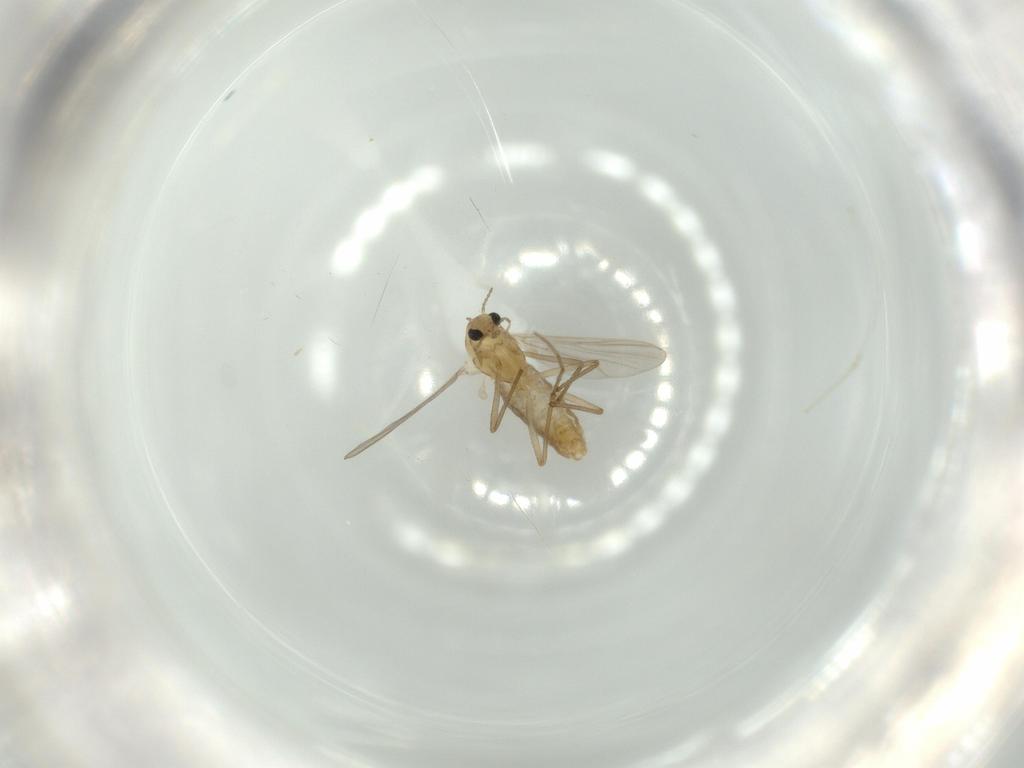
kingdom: Animalia
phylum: Arthropoda
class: Insecta
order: Diptera
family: Chironomidae
